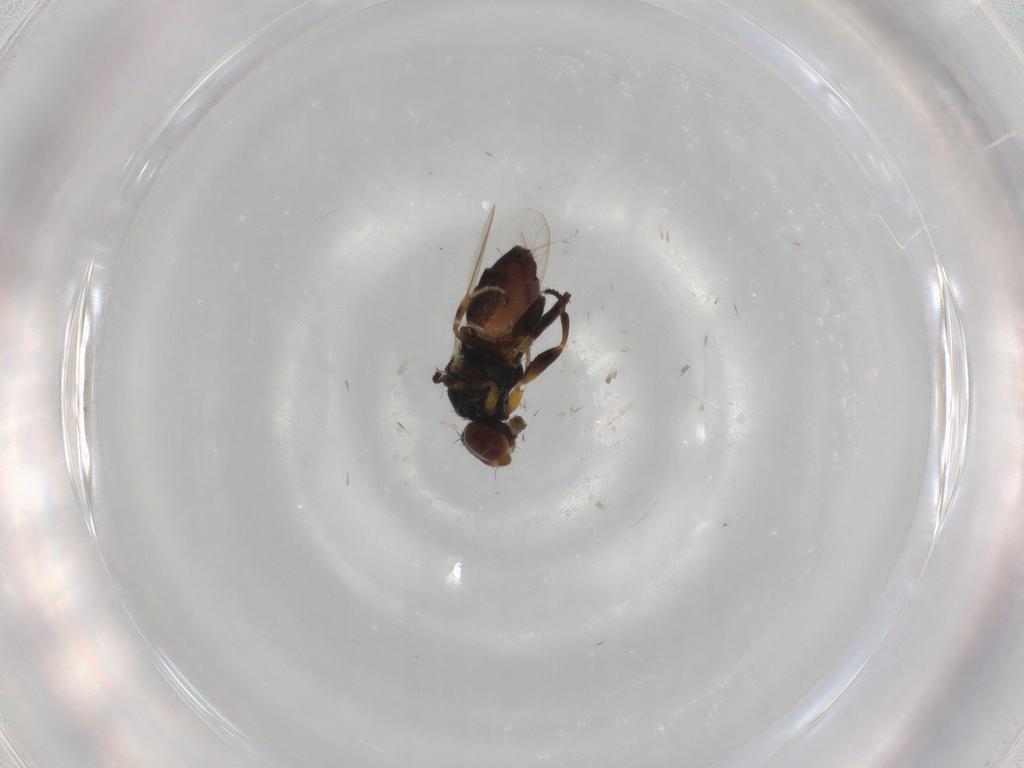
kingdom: Animalia
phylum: Arthropoda
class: Insecta
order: Diptera
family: Chloropidae
